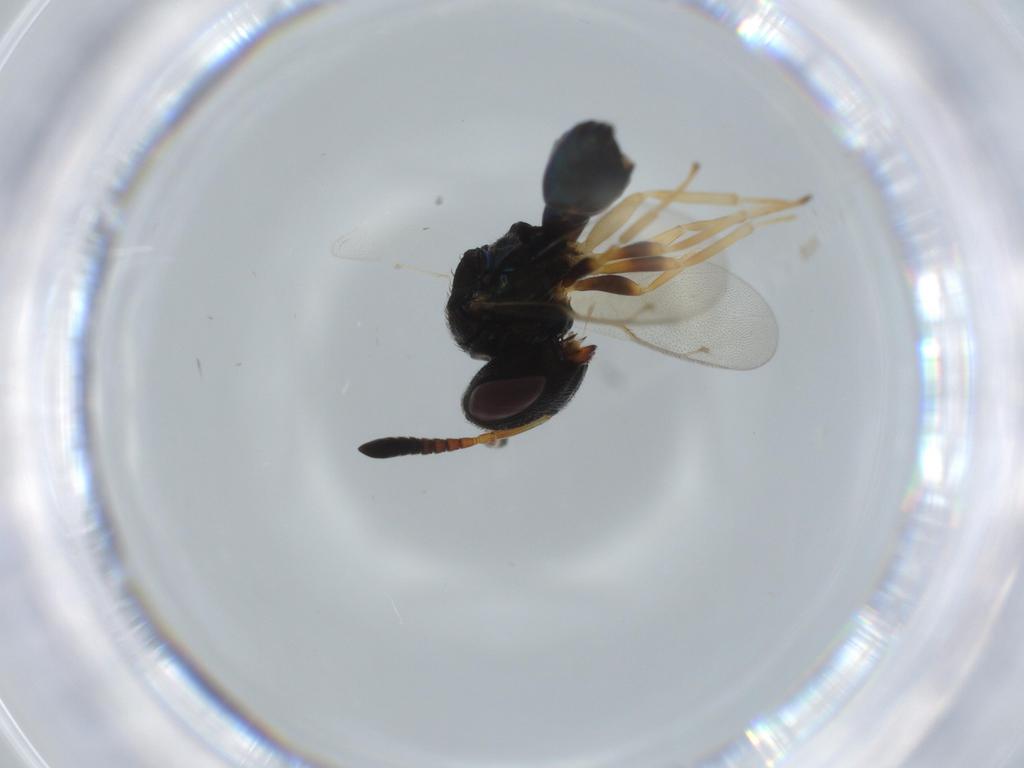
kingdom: Animalia
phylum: Arthropoda
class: Insecta
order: Hymenoptera
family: Pteromalidae
